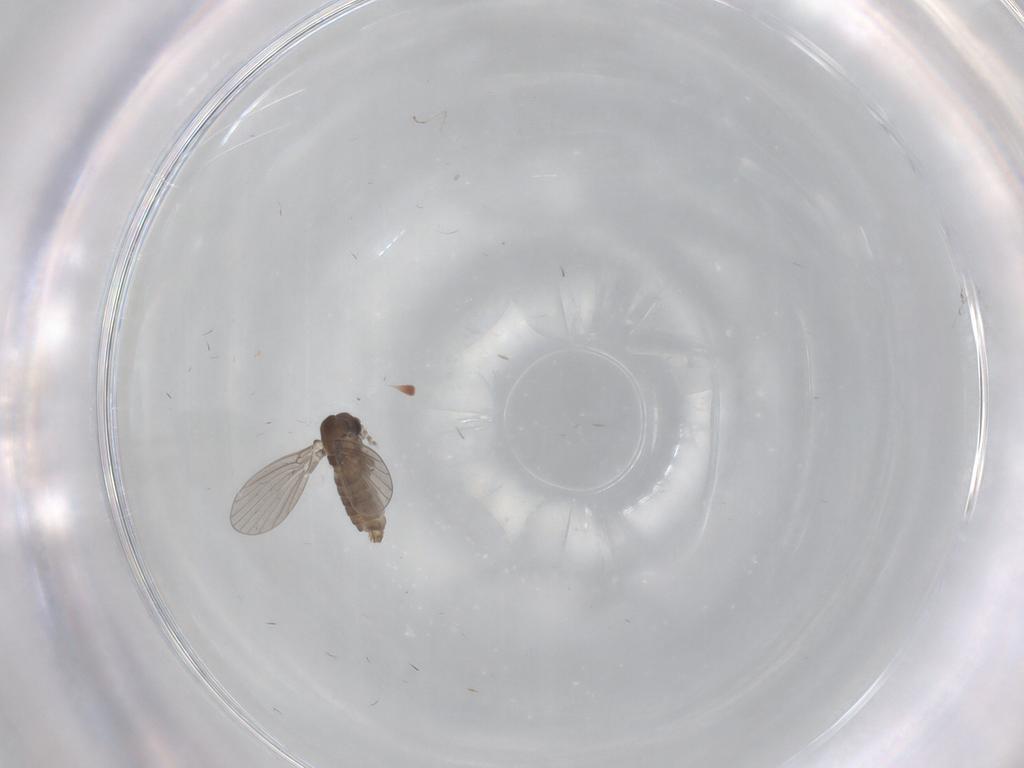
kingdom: Animalia
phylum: Arthropoda
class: Insecta
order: Diptera
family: Cecidomyiidae
